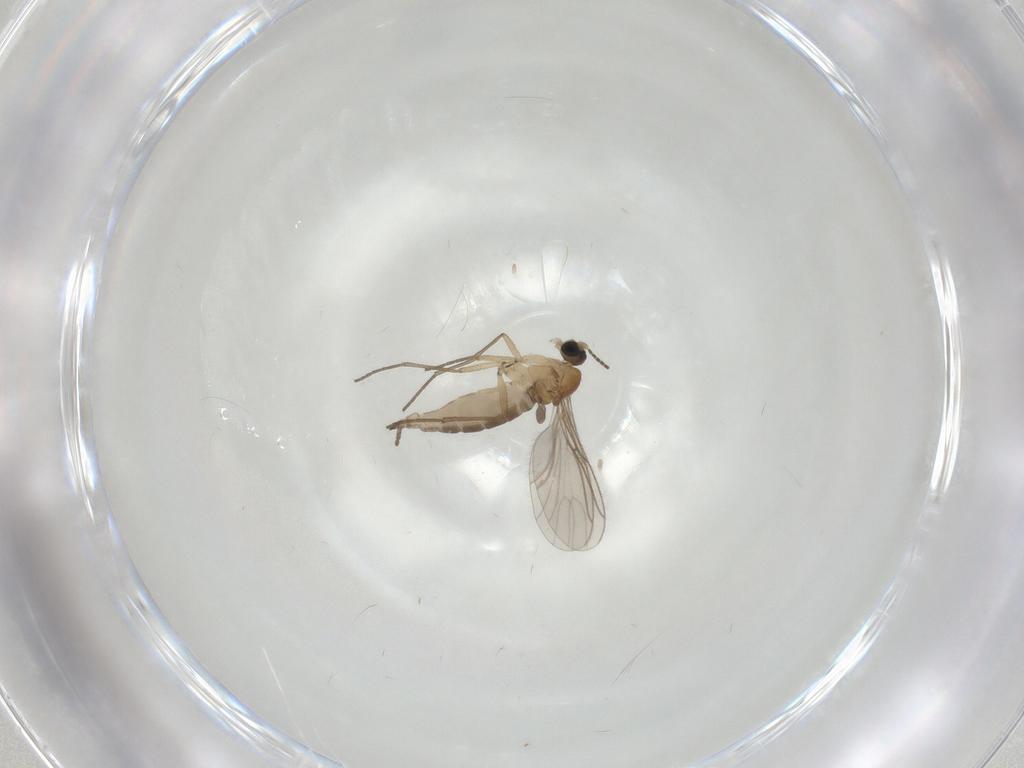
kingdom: Animalia
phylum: Arthropoda
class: Insecta
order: Diptera
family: Sciaridae
